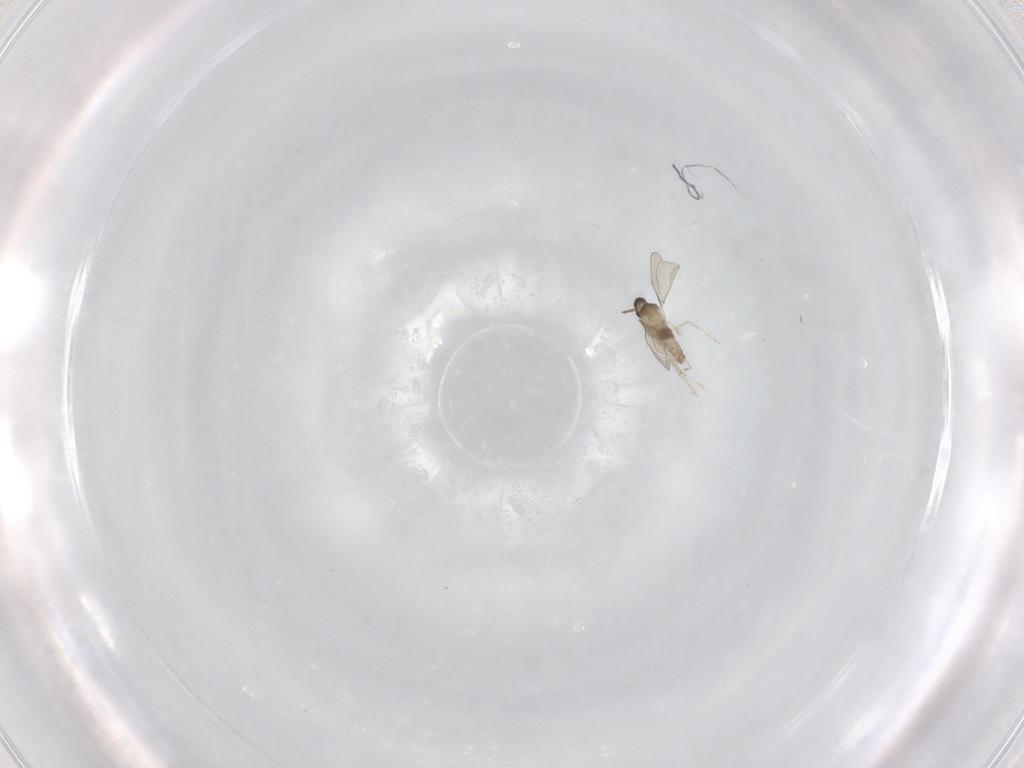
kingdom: Animalia
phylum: Arthropoda
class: Insecta
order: Diptera
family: Cecidomyiidae
